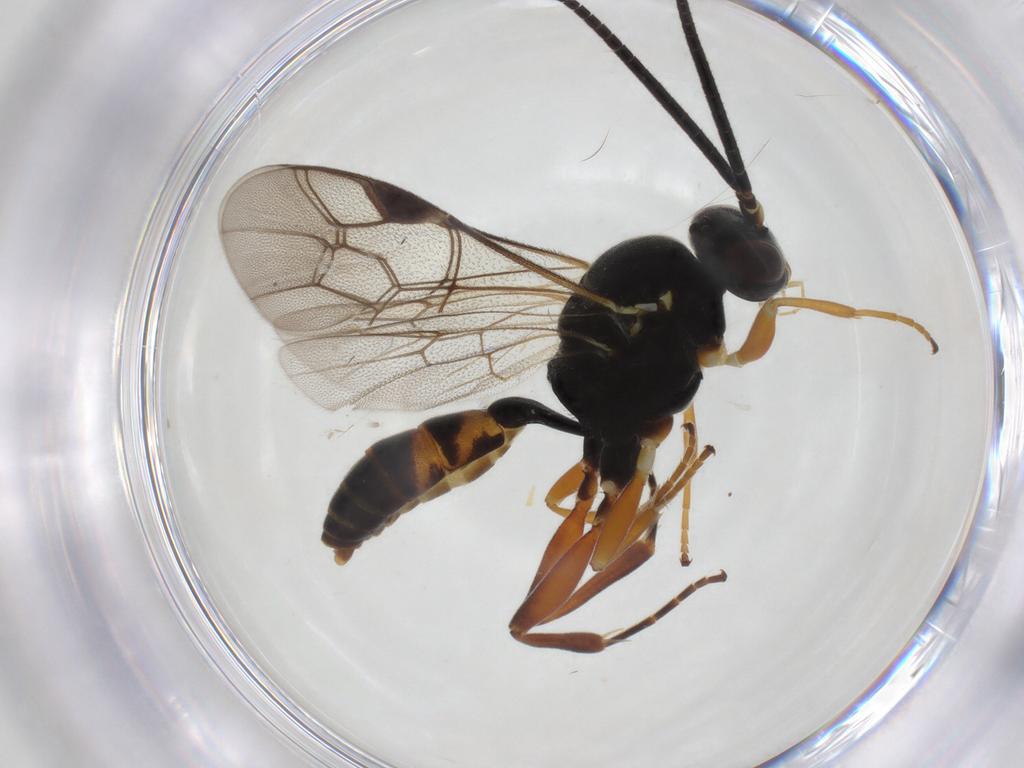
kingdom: Animalia
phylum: Arthropoda
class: Insecta
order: Hymenoptera
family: Ichneumonidae
